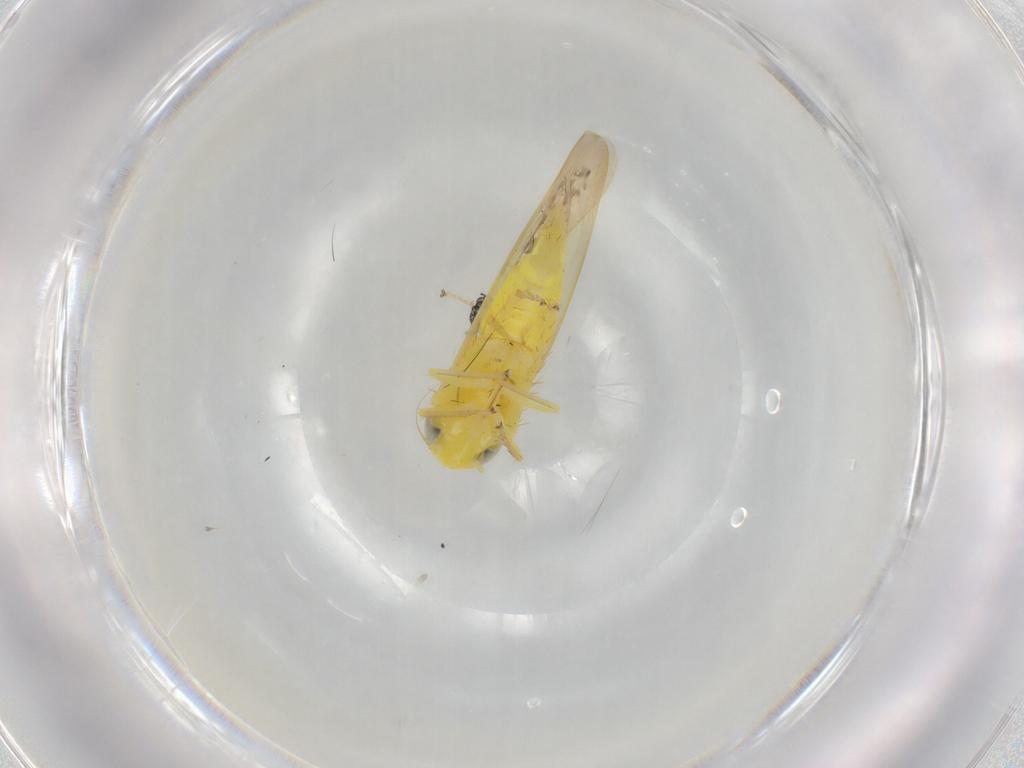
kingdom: Animalia
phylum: Arthropoda
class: Insecta
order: Hemiptera
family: Cicadellidae
